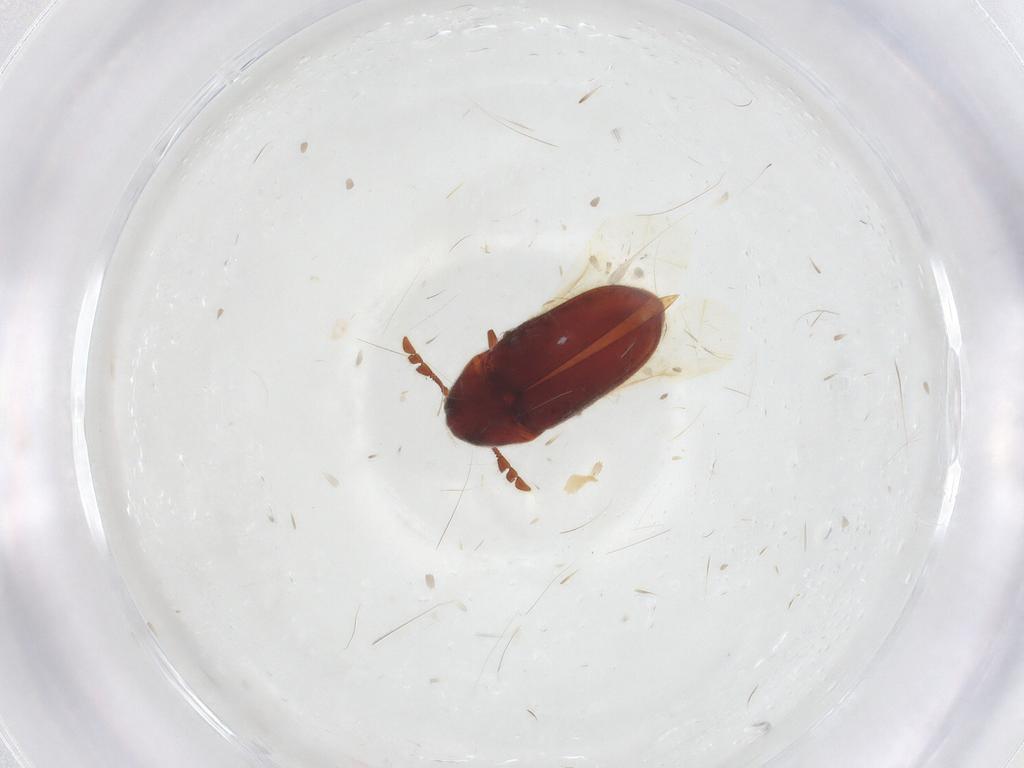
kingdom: Animalia
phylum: Arthropoda
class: Insecta
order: Coleoptera
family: Throscidae
